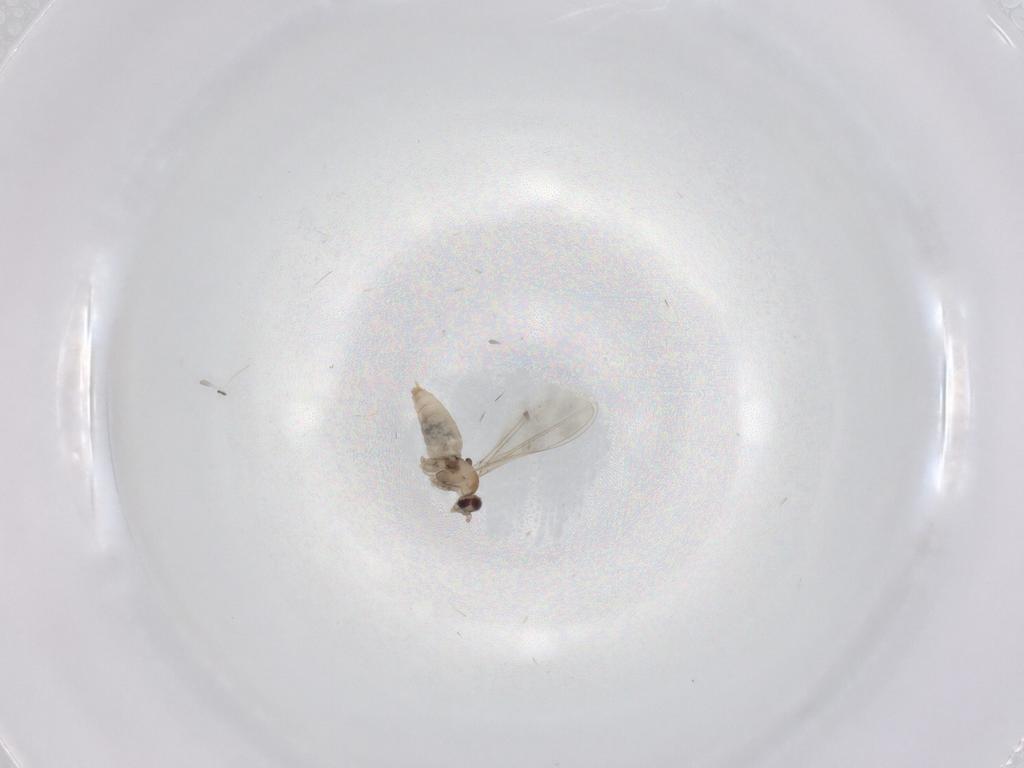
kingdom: Animalia
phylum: Arthropoda
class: Insecta
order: Diptera
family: Cecidomyiidae
